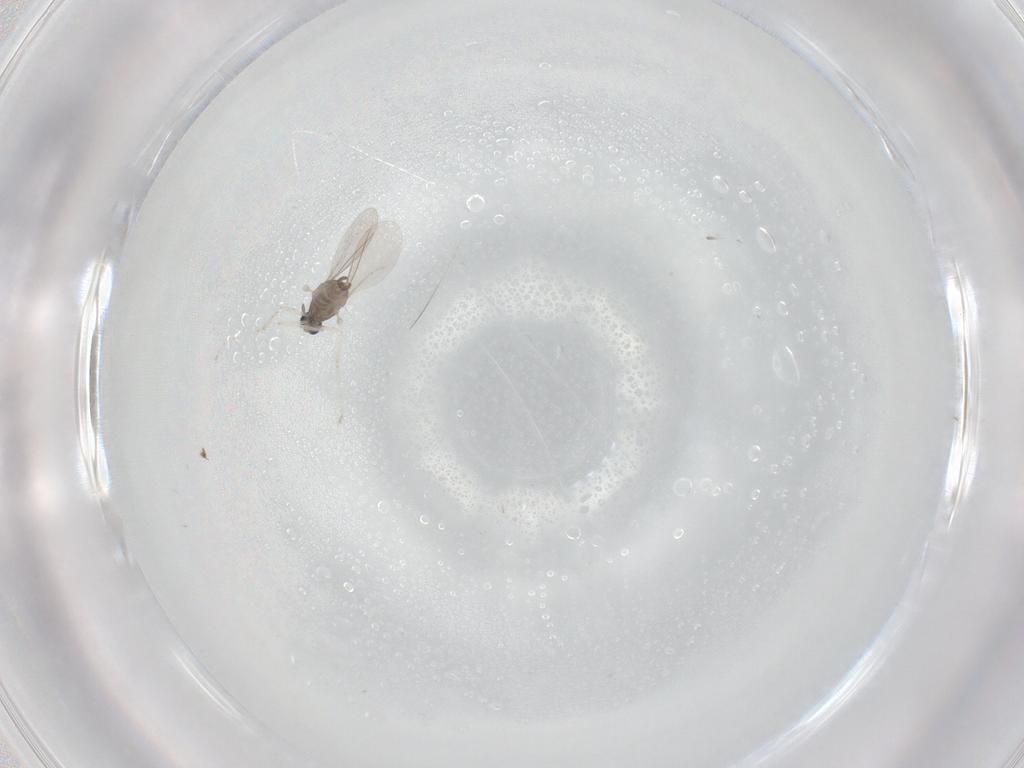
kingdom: Animalia
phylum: Arthropoda
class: Insecta
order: Diptera
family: Cecidomyiidae
